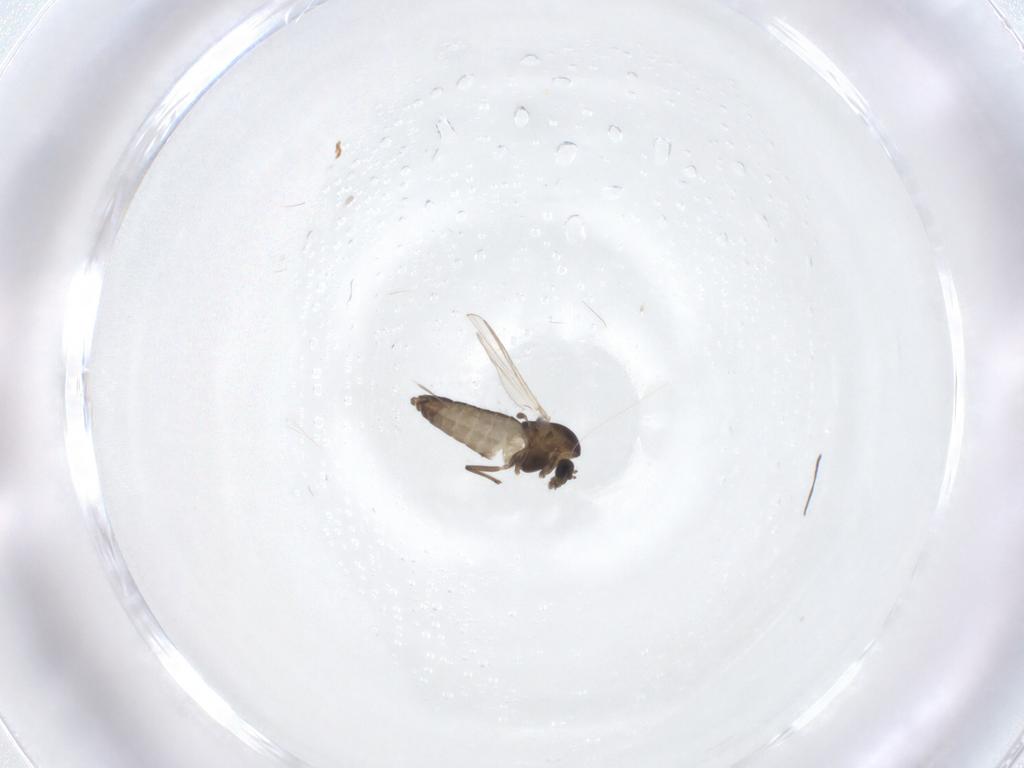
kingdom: Animalia
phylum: Arthropoda
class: Insecta
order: Diptera
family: Chironomidae
